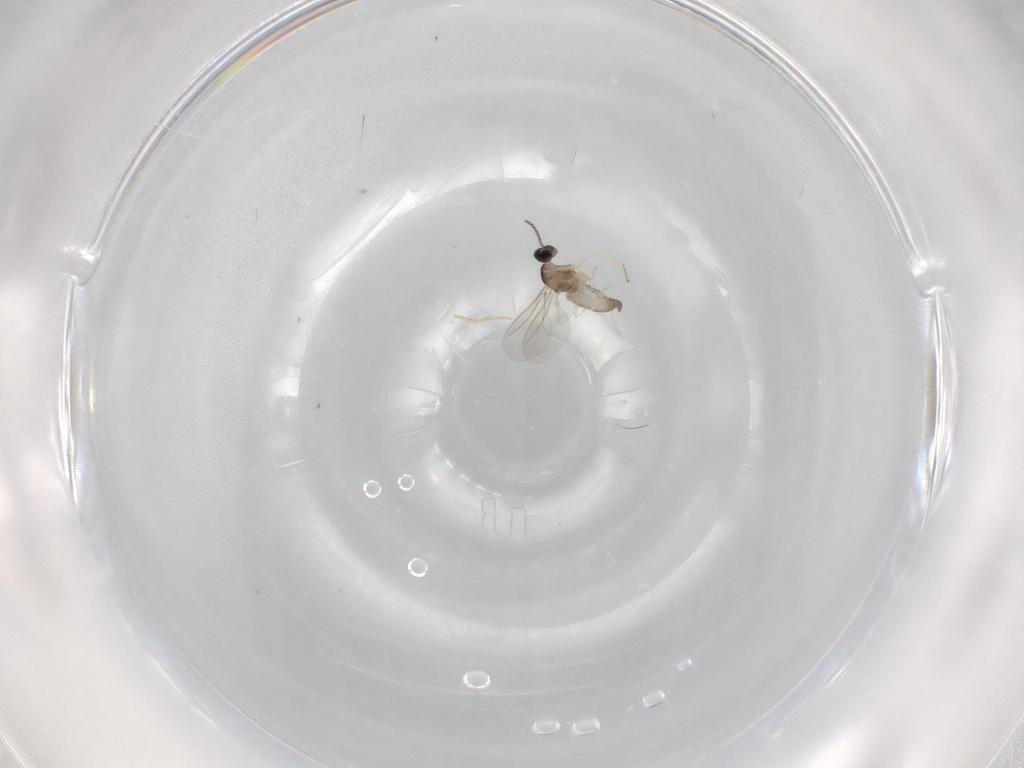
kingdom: Animalia
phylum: Arthropoda
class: Insecta
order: Diptera
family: Cecidomyiidae
